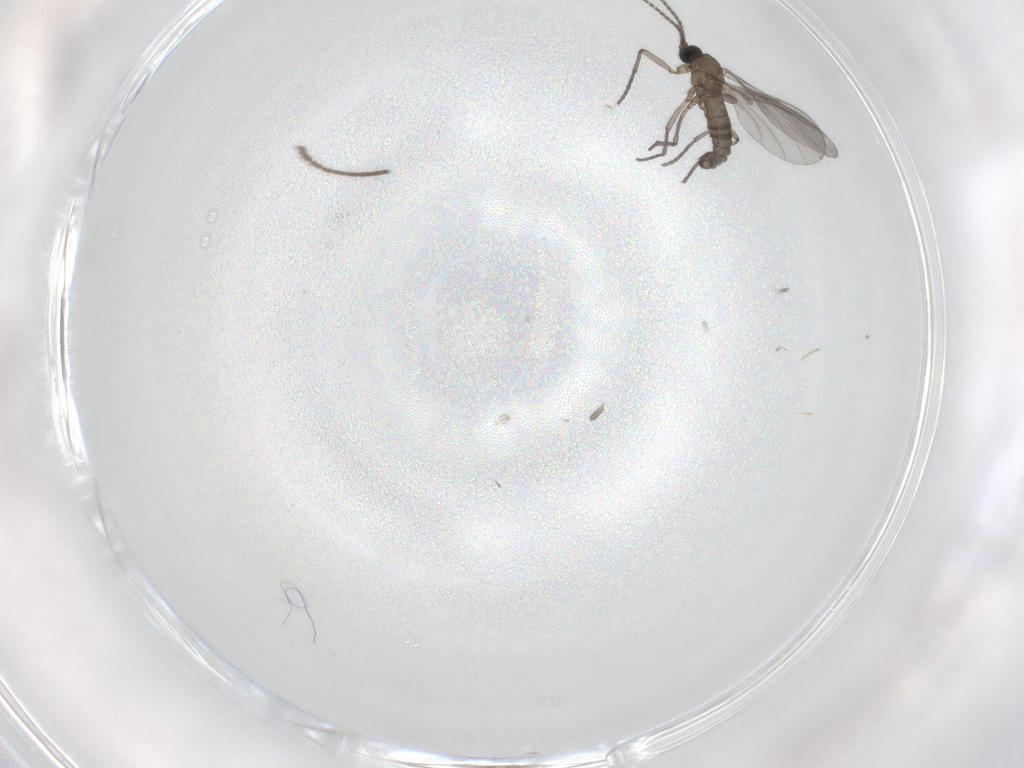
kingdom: Animalia
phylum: Arthropoda
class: Insecta
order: Diptera
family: Sciaridae
